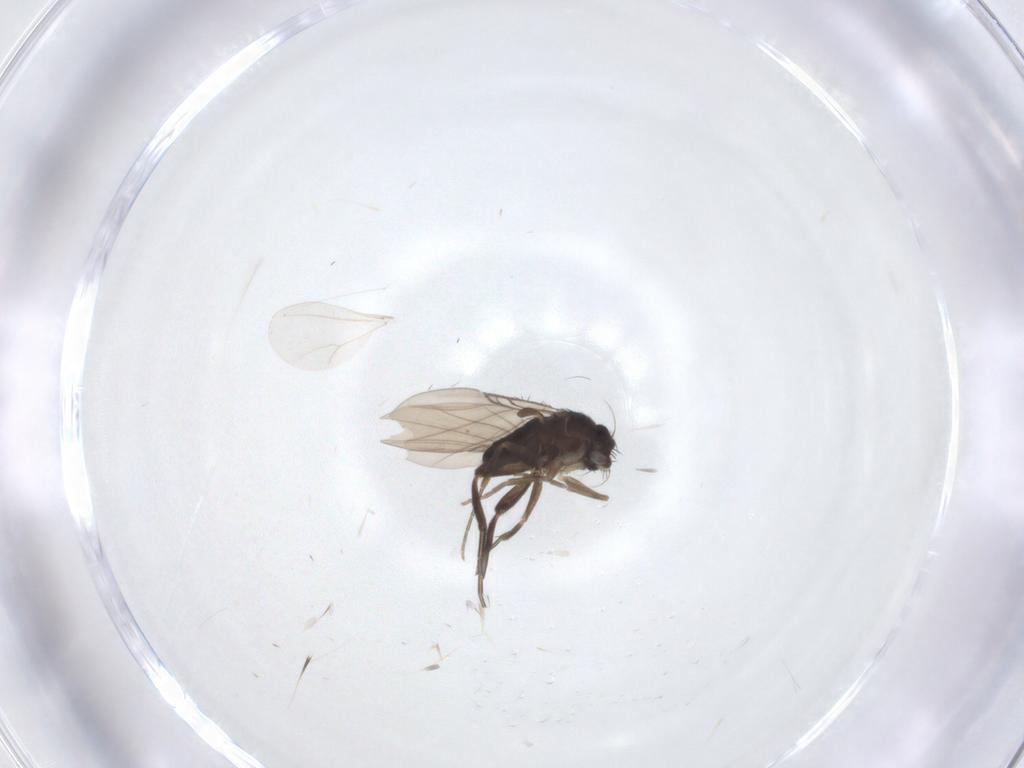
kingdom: Animalia
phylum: Arthropoda
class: Insecta
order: Diptera
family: Phoridae
